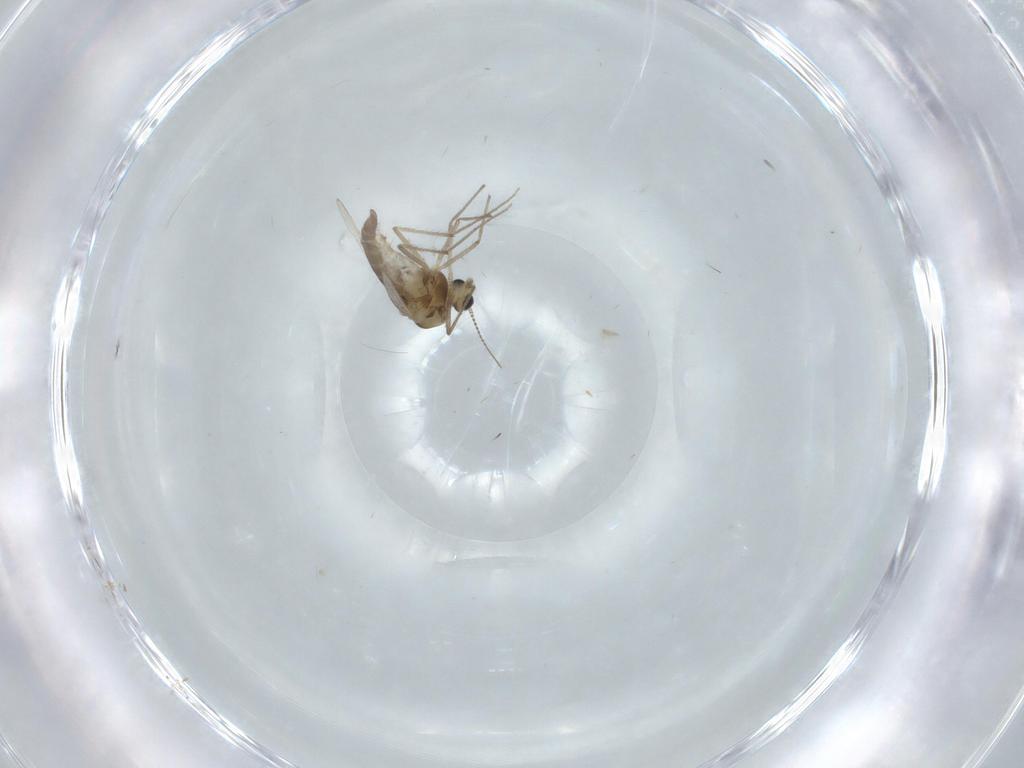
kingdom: Animalia
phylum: Arthropoda
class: Insecta
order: Diptera
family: Chironomidae
